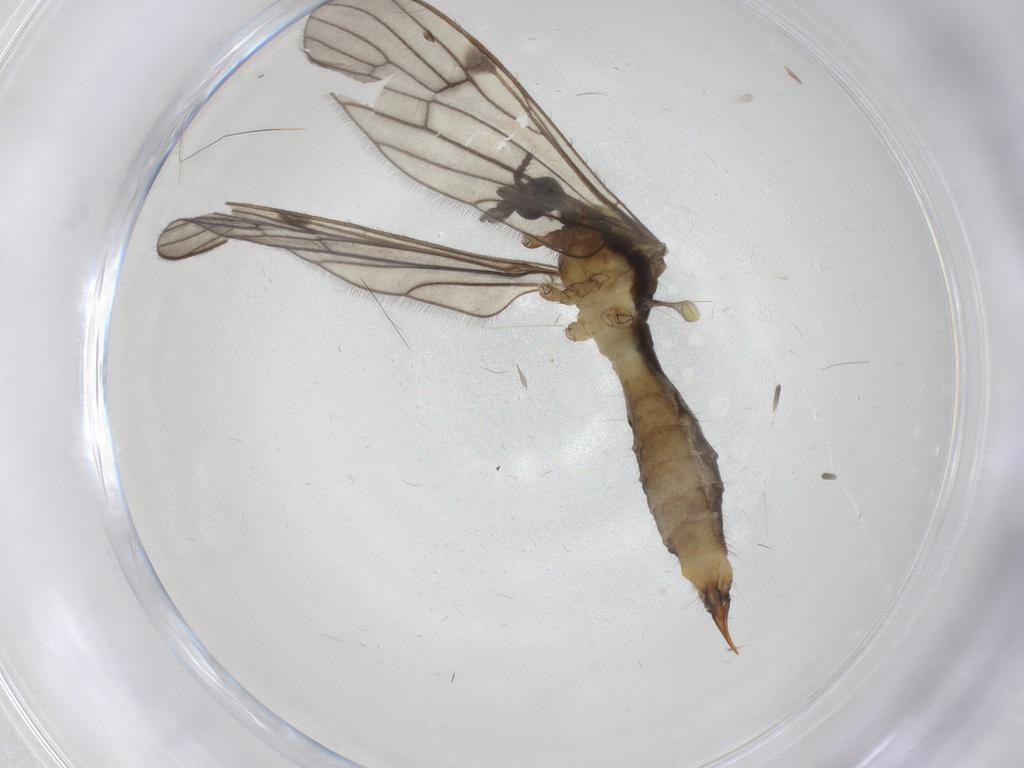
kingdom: Animalia
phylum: Arthropoda
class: Insecta
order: Diptera
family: Limoniidae
